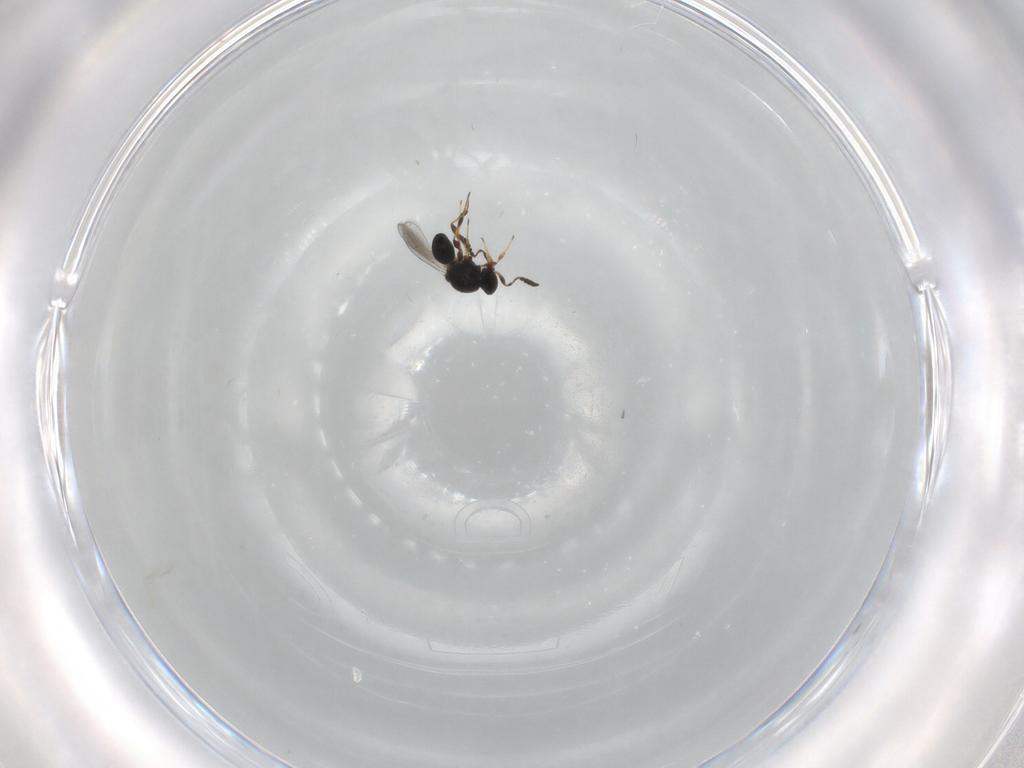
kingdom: Animalia
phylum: Arthropoda
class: Insecta
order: Hymenoptera
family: Platygastridae
